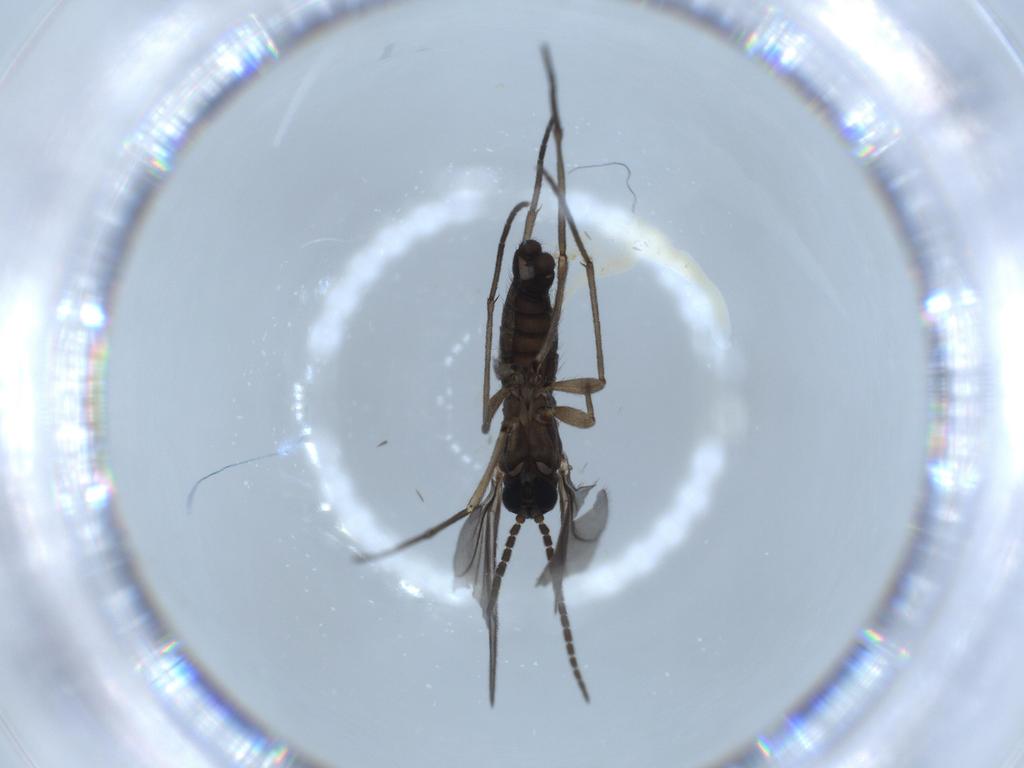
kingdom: Animalia
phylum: Arthropoda
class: Insecta
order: Diptera
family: Sciaridae
